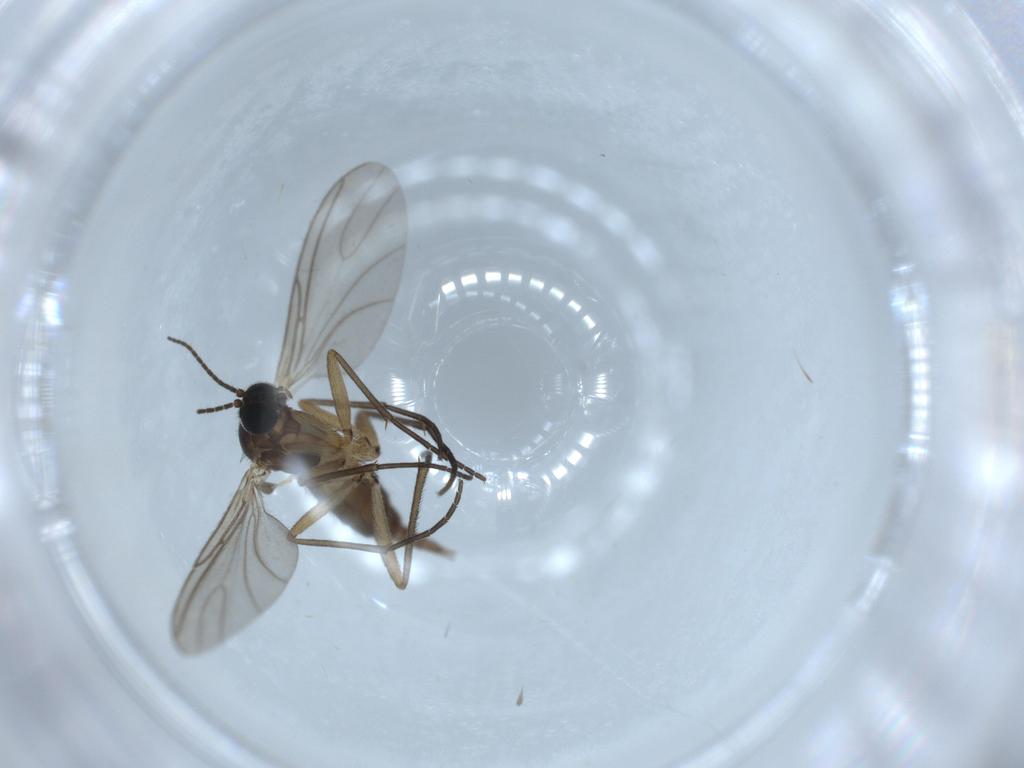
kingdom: Animalia
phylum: Arthropoda
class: Insecta
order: Diptera
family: Sciaridae
